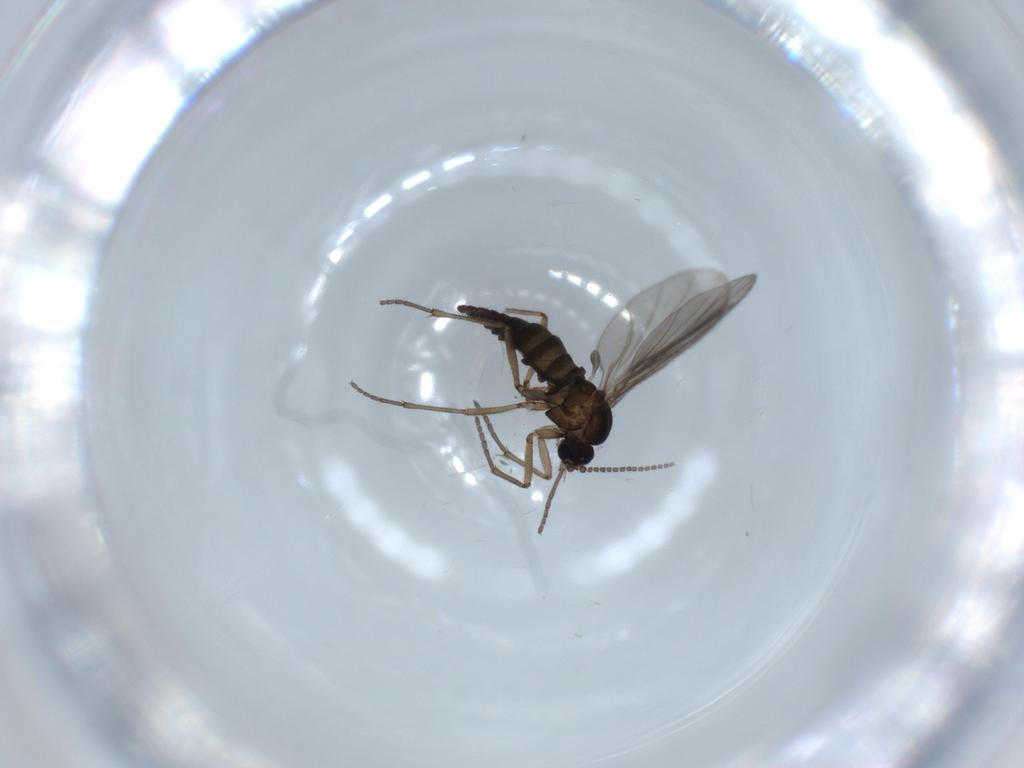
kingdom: Animalia
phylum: Arthropoda
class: Insecta
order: Diptera
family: Sciaridae
